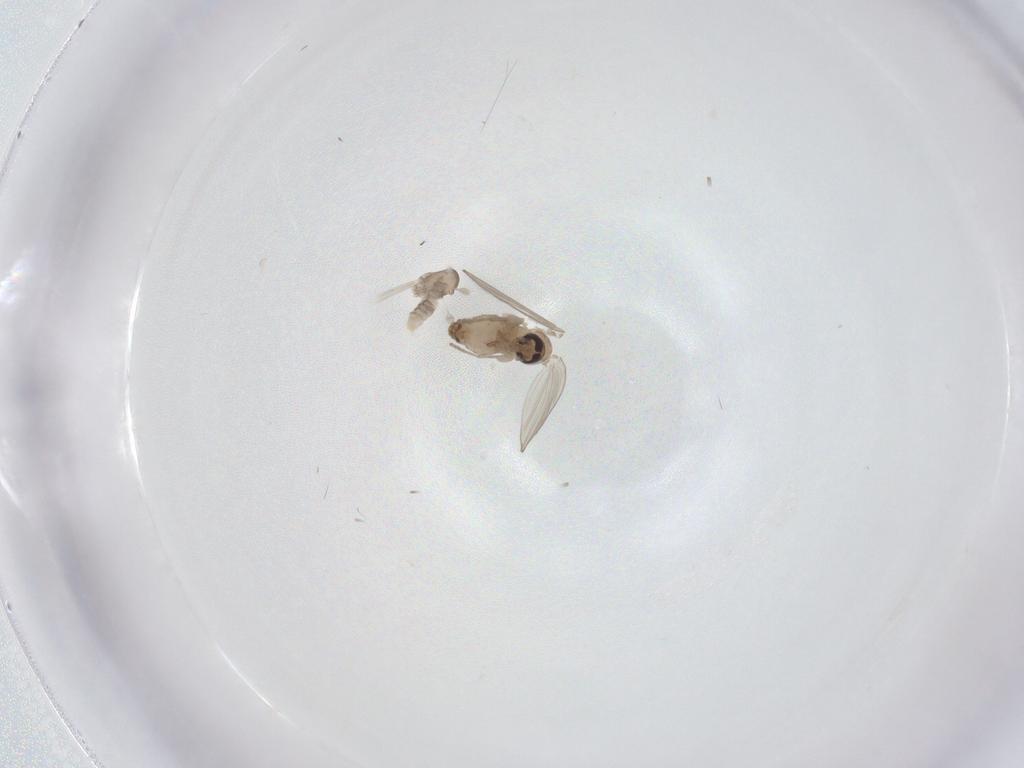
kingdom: Animalia
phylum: Arthropoda
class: Insecta
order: Diptera
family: Cecidomyiidae
